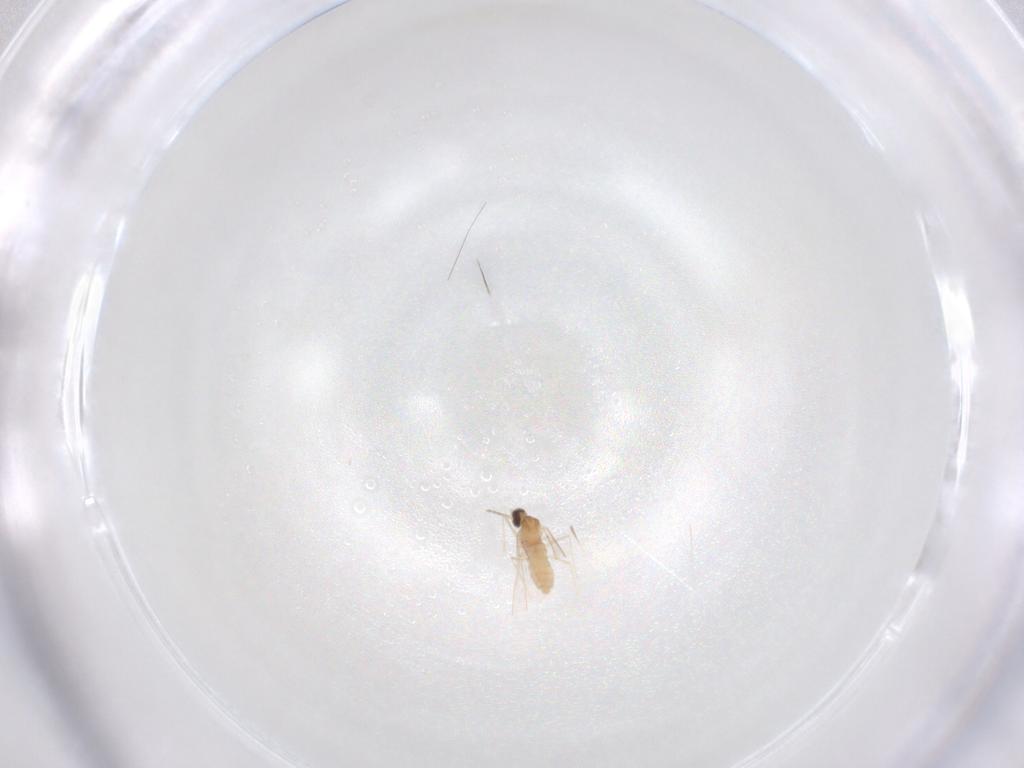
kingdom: Animalia
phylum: Arthropoda
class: Insecta
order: Diptera
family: Cecidomyiidae
